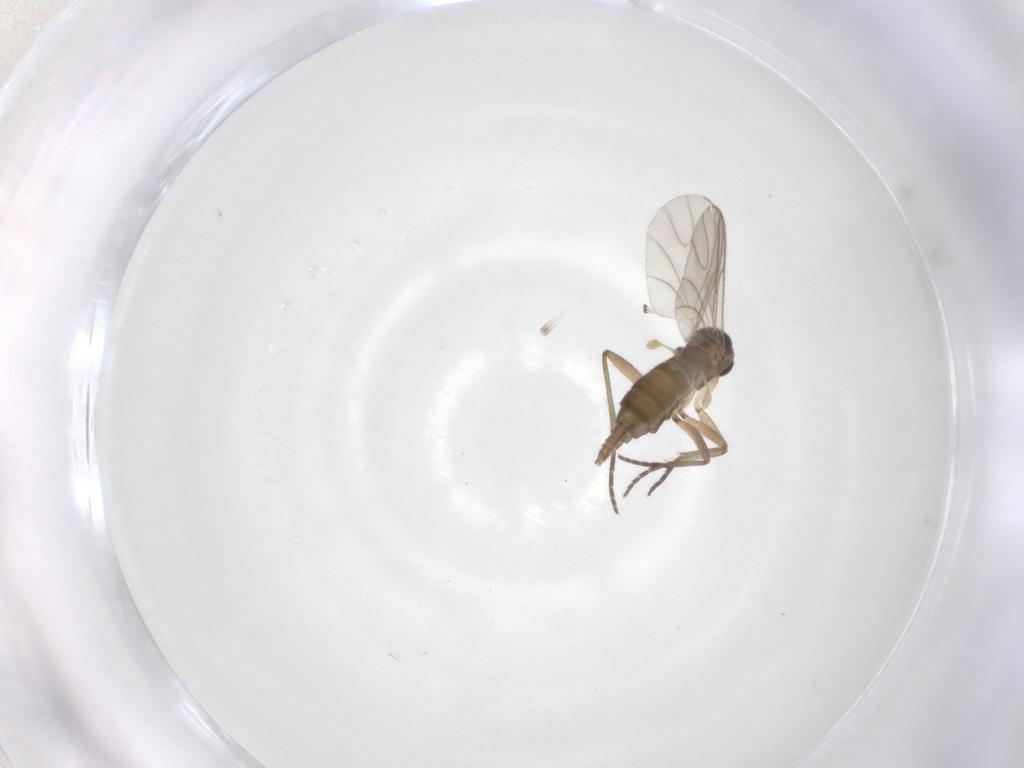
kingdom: Animalia
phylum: Arthropoda
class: Insecta
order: Diptera
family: Sciaridae
